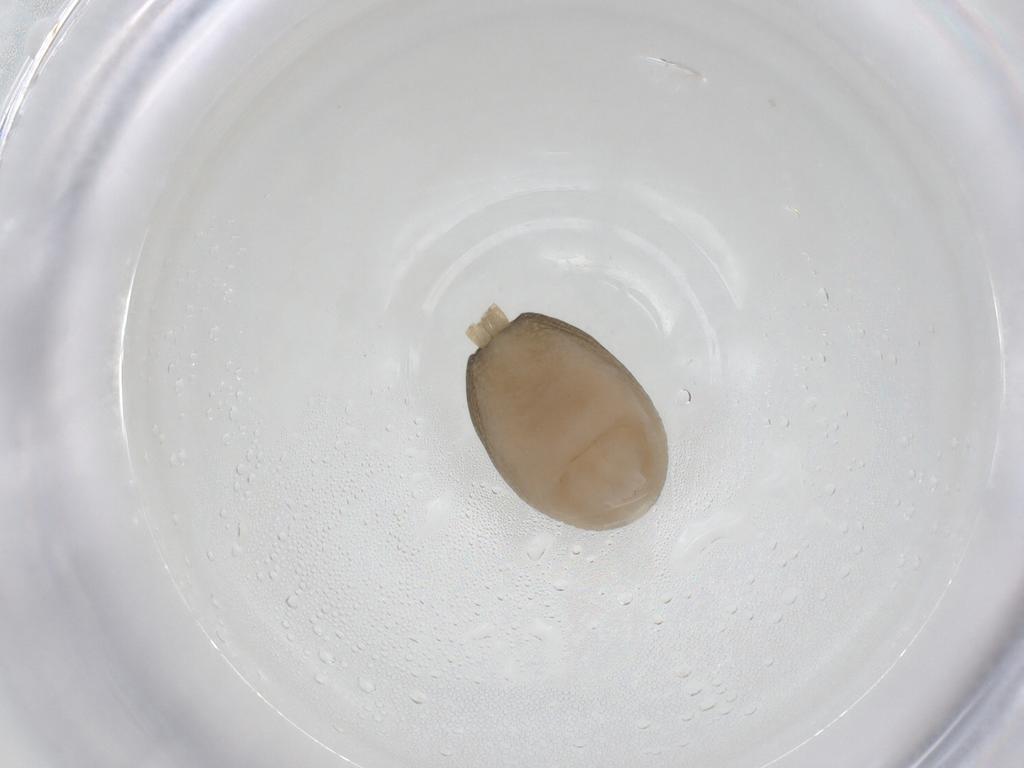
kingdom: Animalia
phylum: Arthropoda
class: Arachnida
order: Araneae
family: Corinnidae
